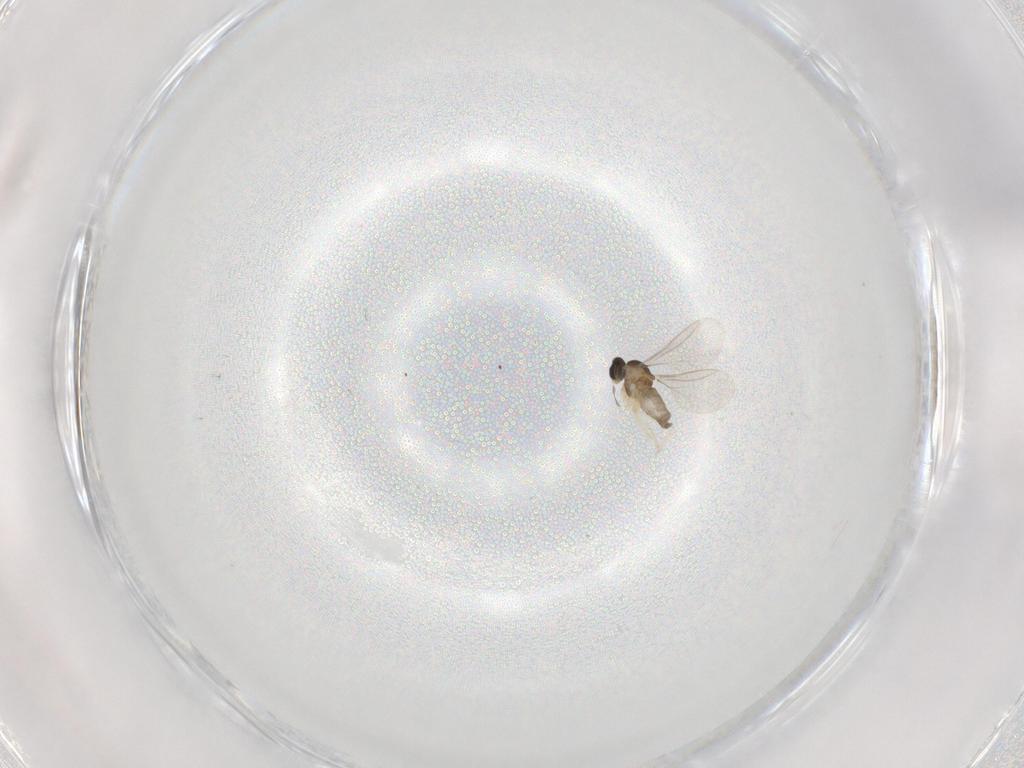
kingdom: Animalia
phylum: Arthropoda
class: Insecta
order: Diptera
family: Cecidomyiidae
